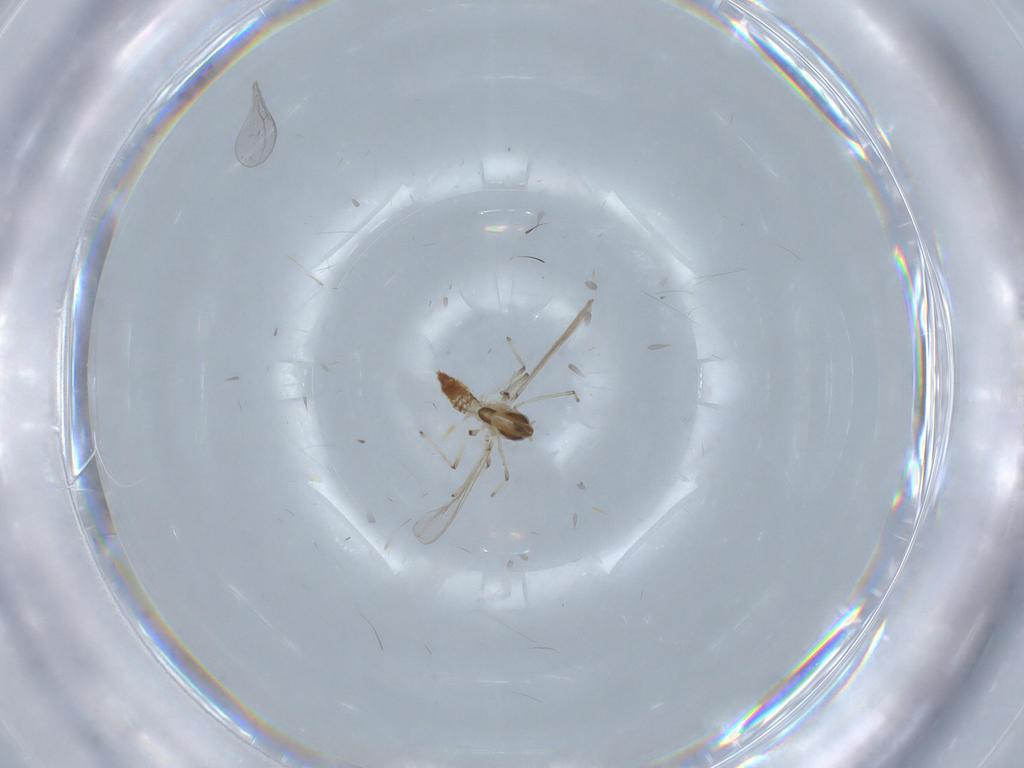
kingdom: Animalia
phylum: Arthropoda
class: Insecta
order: Diptera
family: Chironomidae
